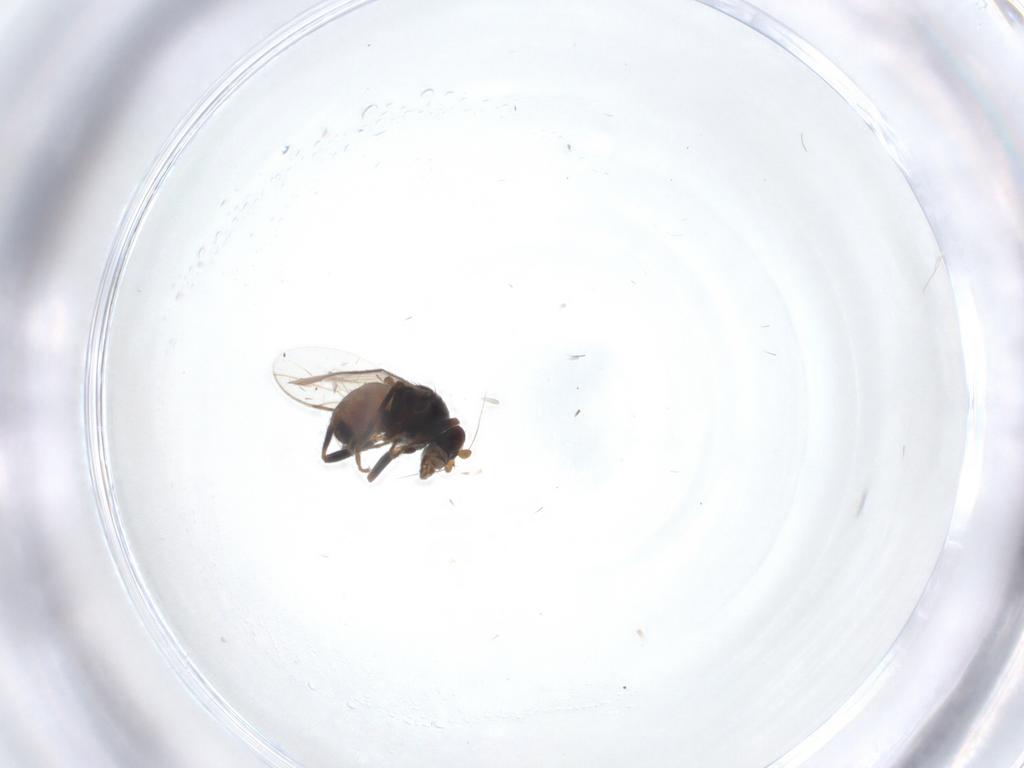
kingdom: Animalia
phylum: Arthropoda
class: Insecta
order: Diptera
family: Sphaeroceridae
